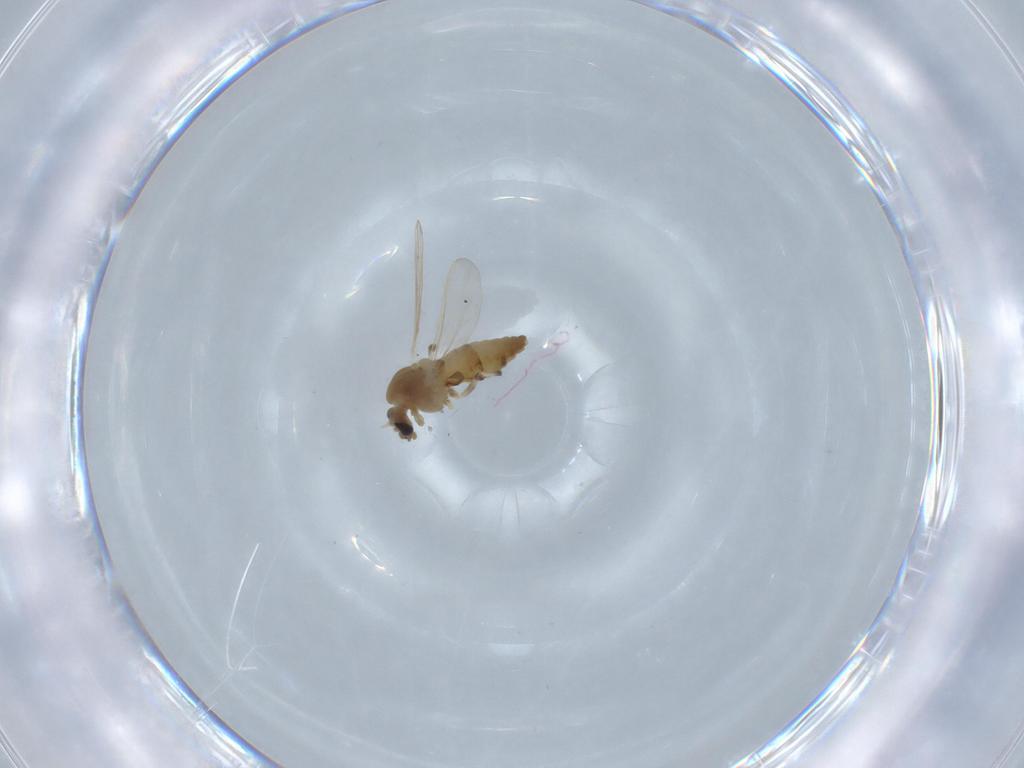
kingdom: Animalia
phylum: Arthropoda
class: Insecta
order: Diptera
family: Chironomidae
